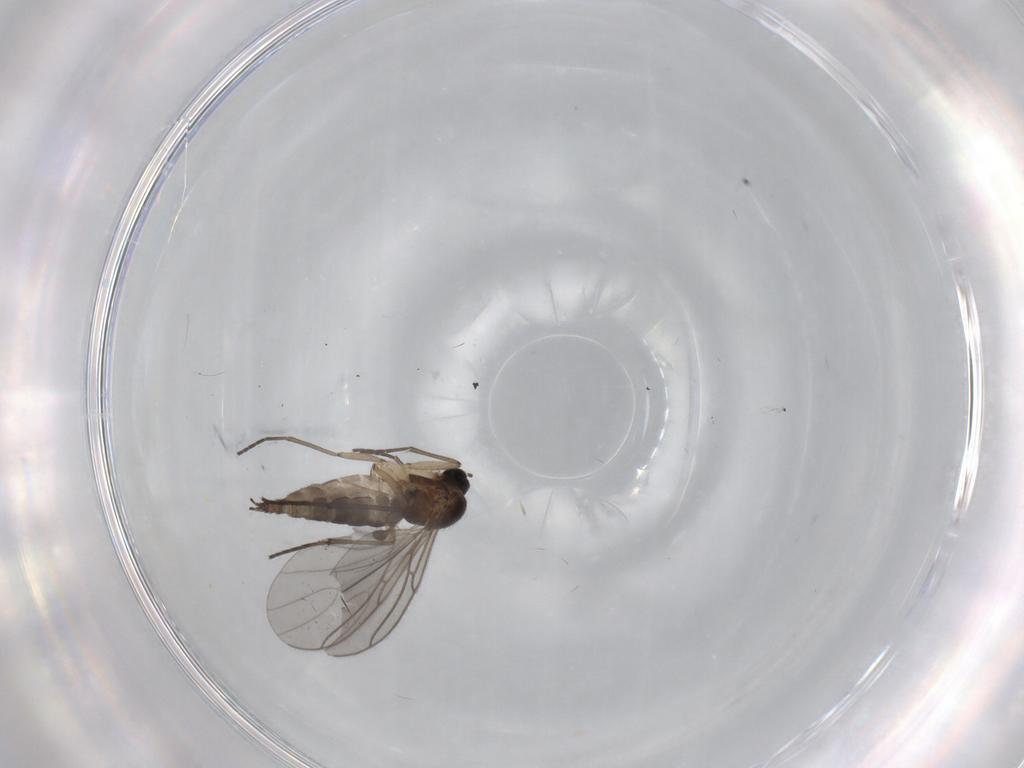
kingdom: Animalia
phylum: Arthropoda
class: Insecta
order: Diptera
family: Sciaridae
